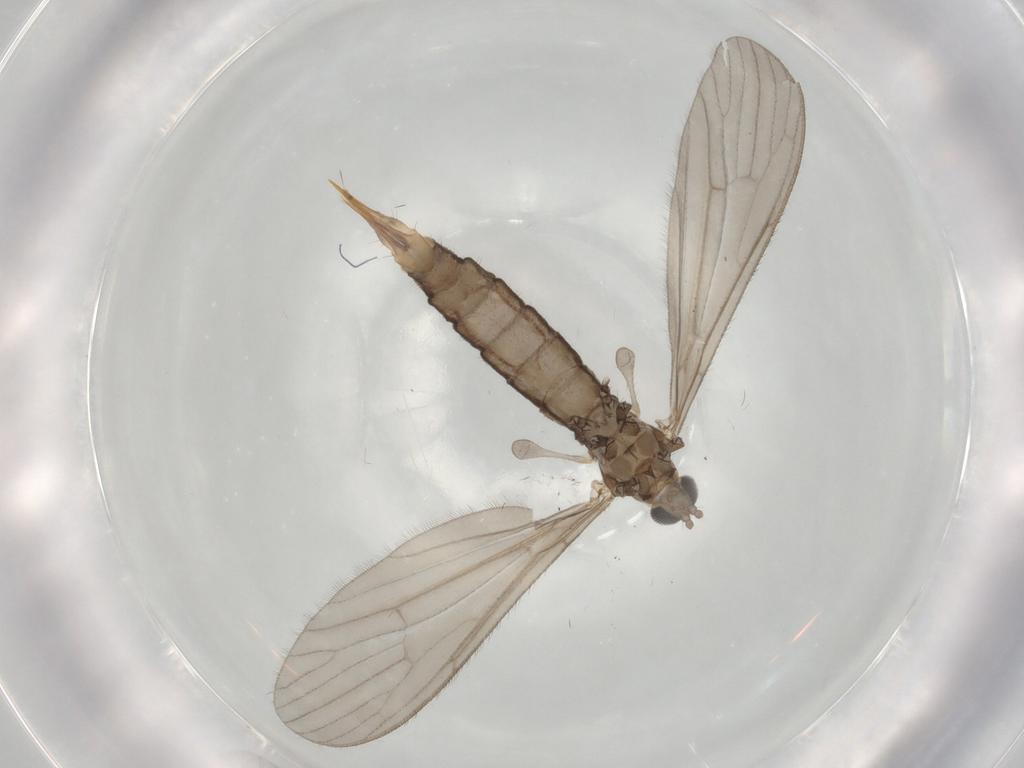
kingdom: Animalia
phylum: Arthropoda
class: Insecta
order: Diptera
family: Limoniidae
